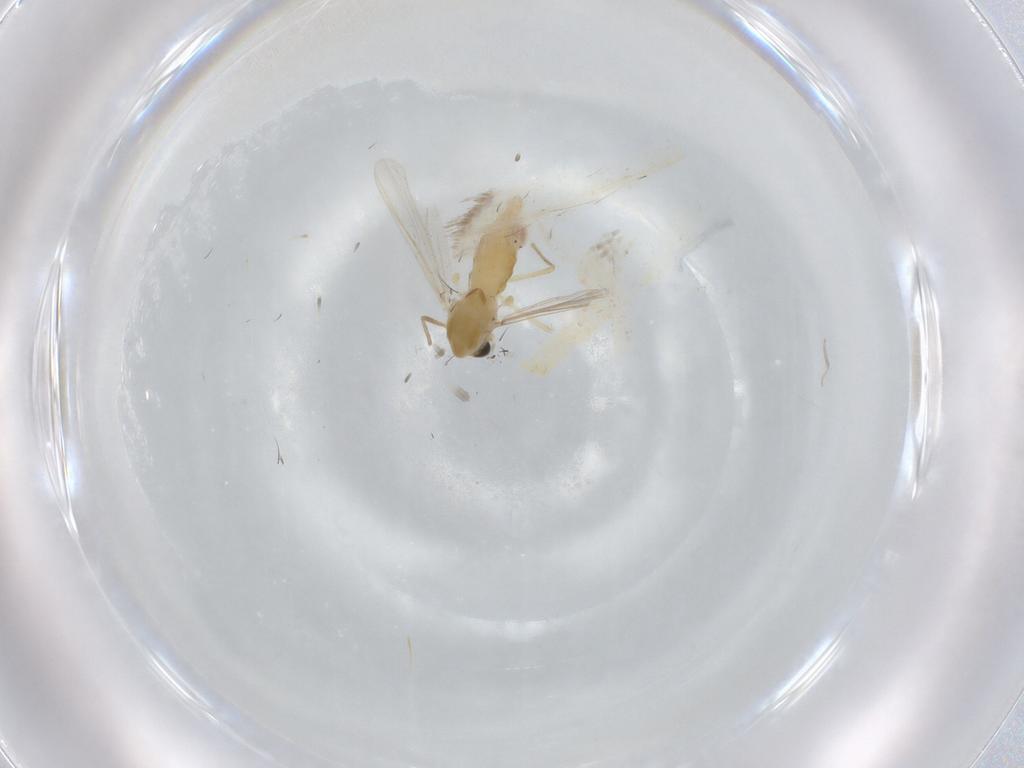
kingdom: Animalia
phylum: Arthropoda
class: Insecta
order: Diptera
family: Chironomidae
